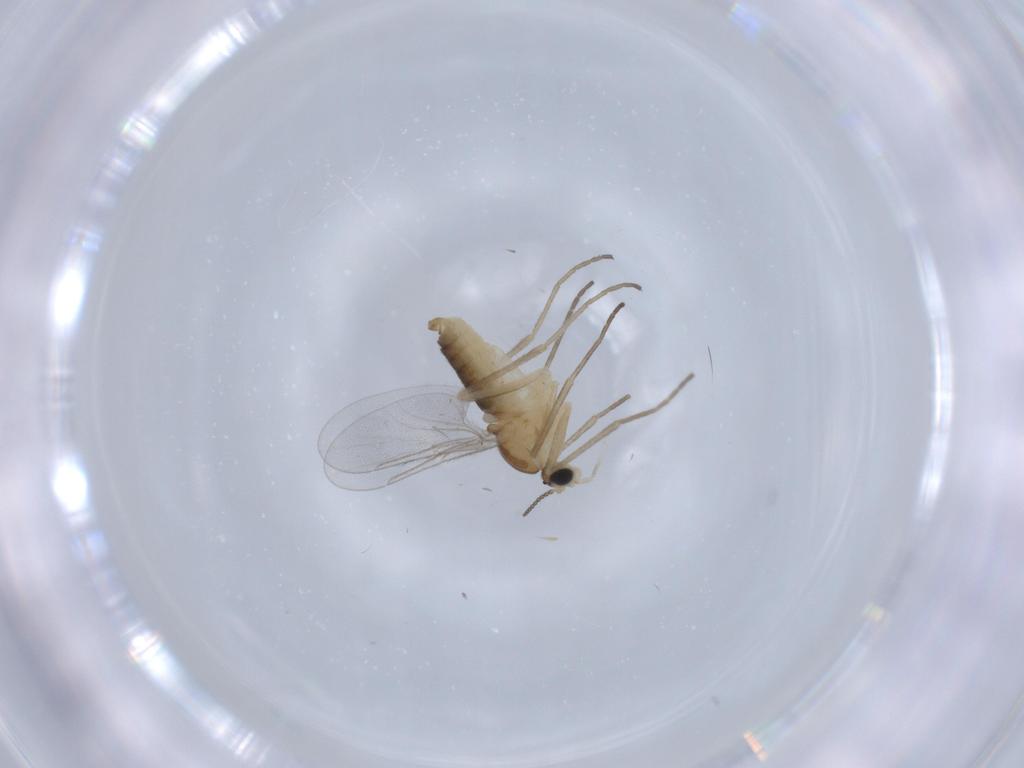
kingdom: Animalia
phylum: Arthropoda
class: Insecta
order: Diptera
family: Cecidomyiidae
